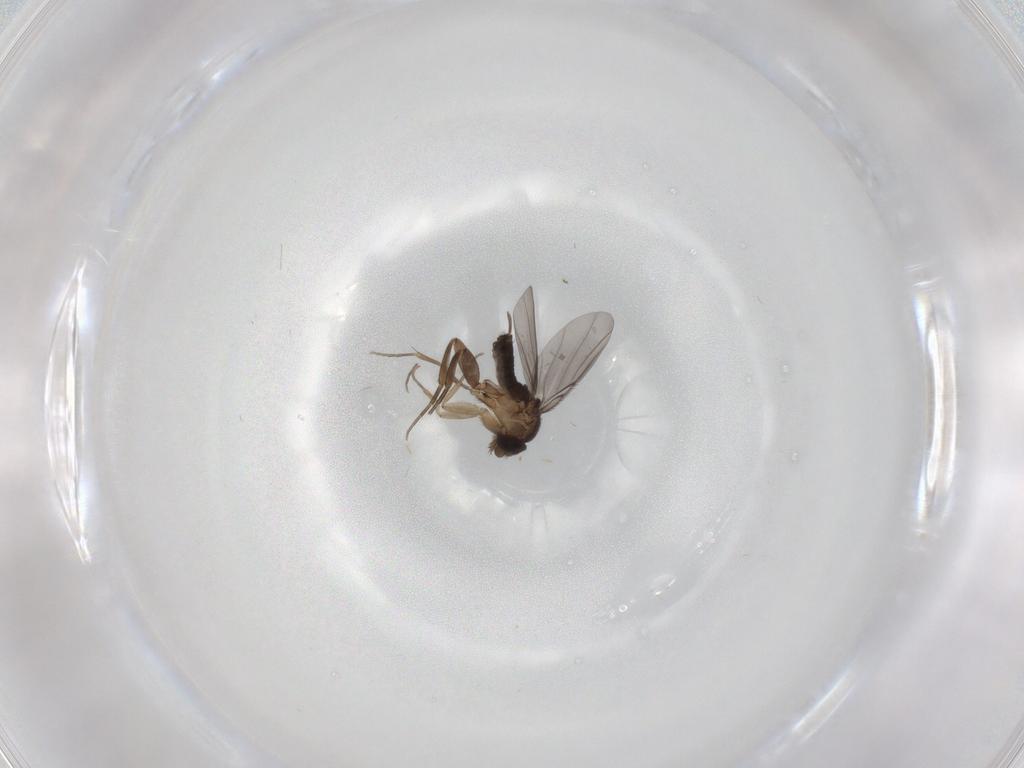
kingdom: Animalia
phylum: Arthropoda
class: Insecta
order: Diptera
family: Phoridae
